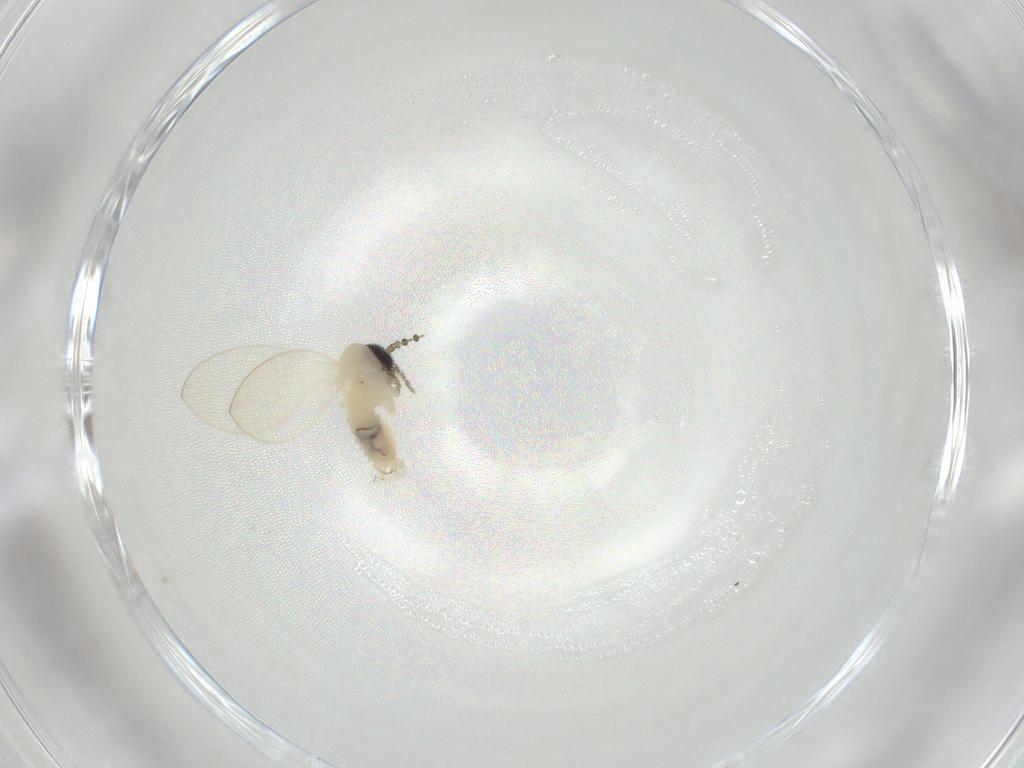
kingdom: Animalia
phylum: Arthropoda
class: Insecta
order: Diptera
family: Psychodidae
